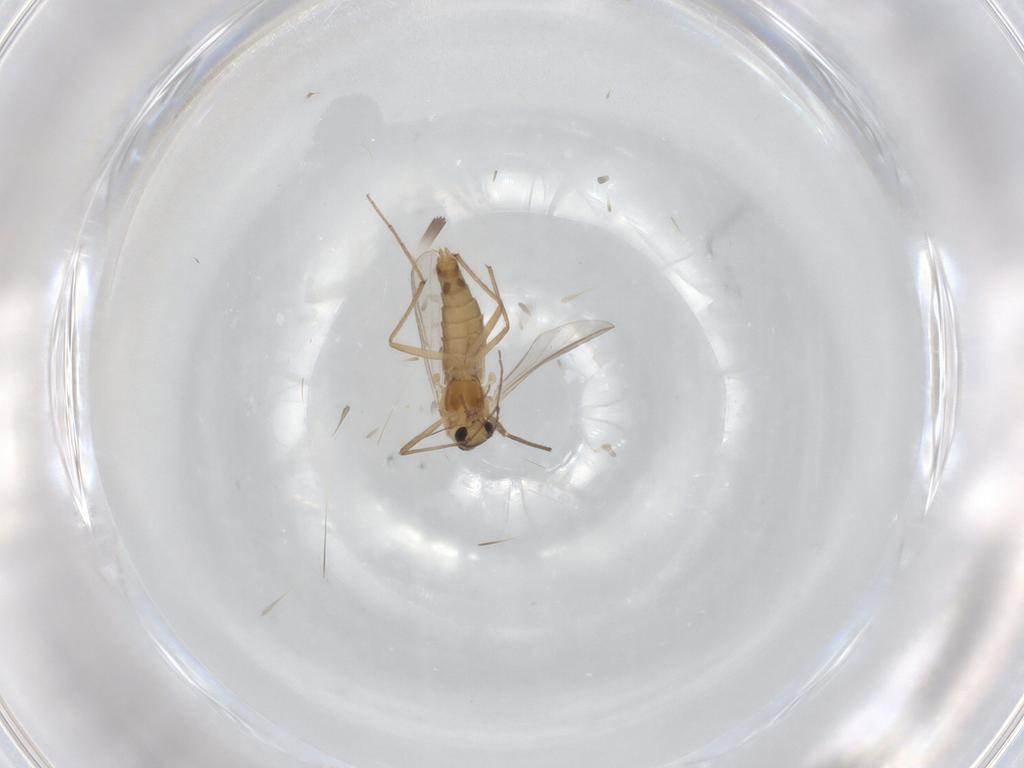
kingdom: Animalia
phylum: Arthropoda
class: Insecta
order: Diptera
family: Chironomidae
